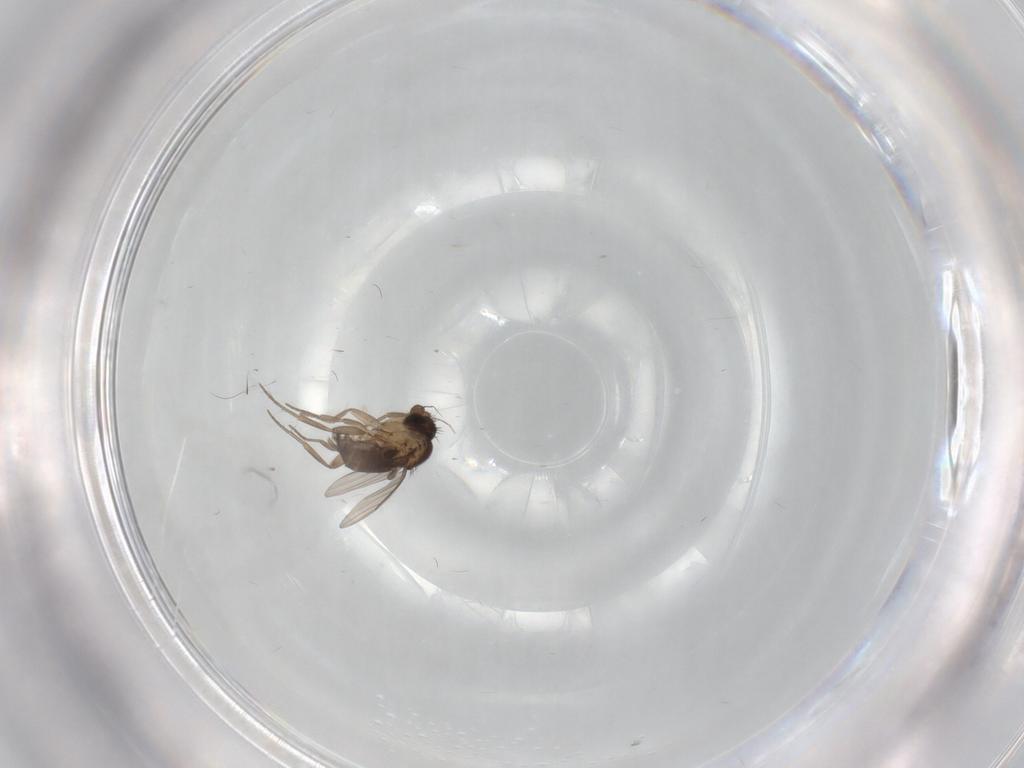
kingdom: Animalia
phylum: Arthropoda
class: Insecta
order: Diptera
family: Chironomidae
